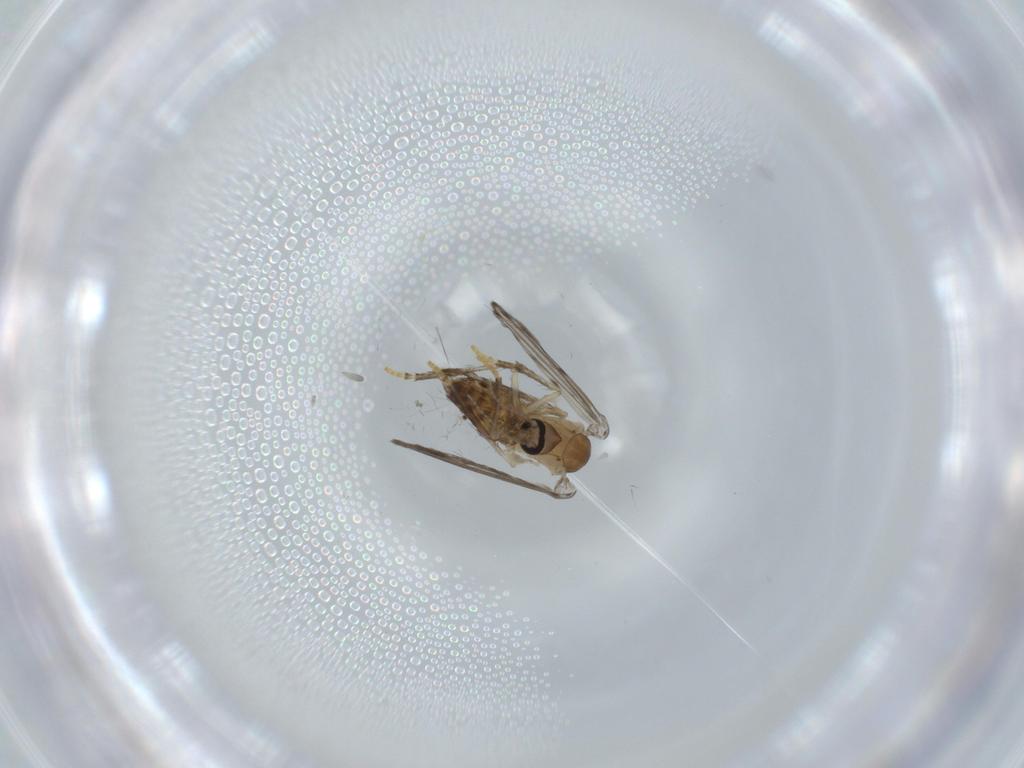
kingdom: Animalia
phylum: Arthropoda
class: Insecta
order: Diptera
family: Psychodidae
